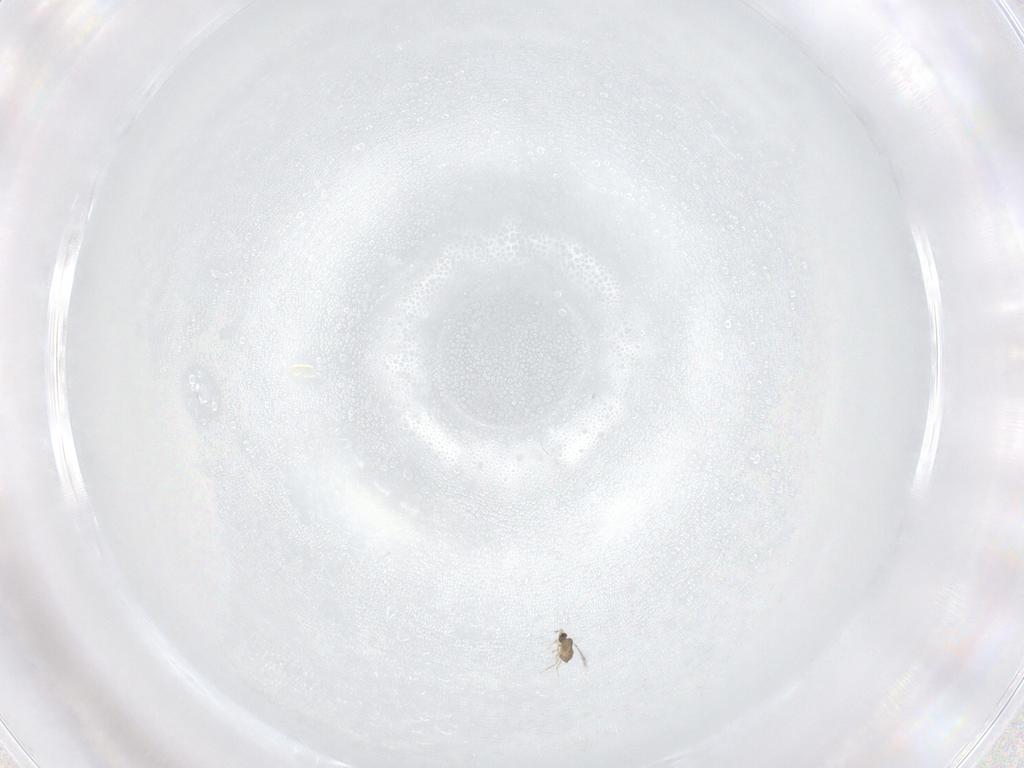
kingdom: Animalia
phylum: Arthropoda
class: Insecta
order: Hymenoptera
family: Mymaridae
